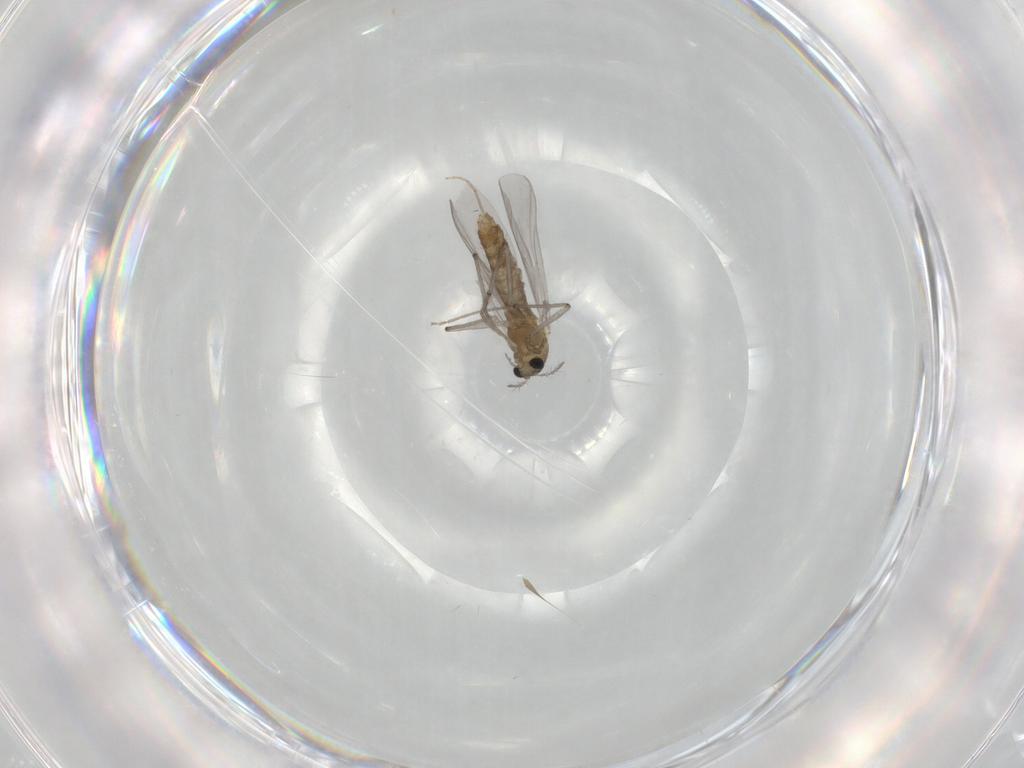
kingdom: Animalia
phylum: Arthropoda
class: Insecta
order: Diptera
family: Chironomidae
